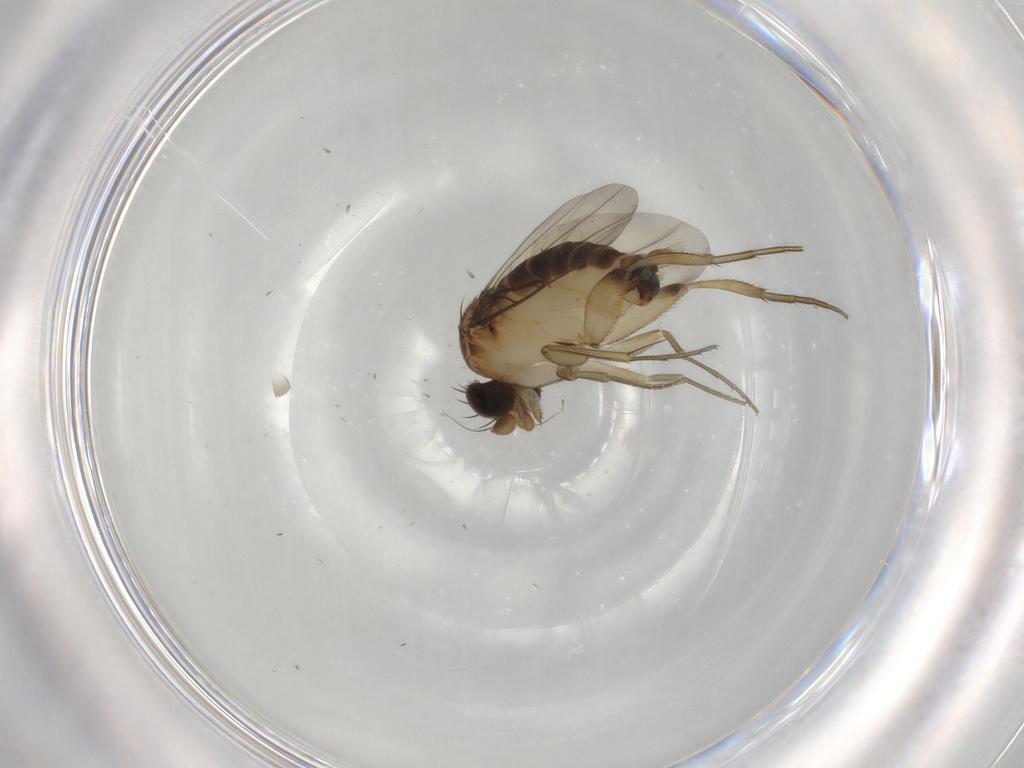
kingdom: Animalia
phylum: Arthropoda
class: Insecta
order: Diptera
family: Phoridae
